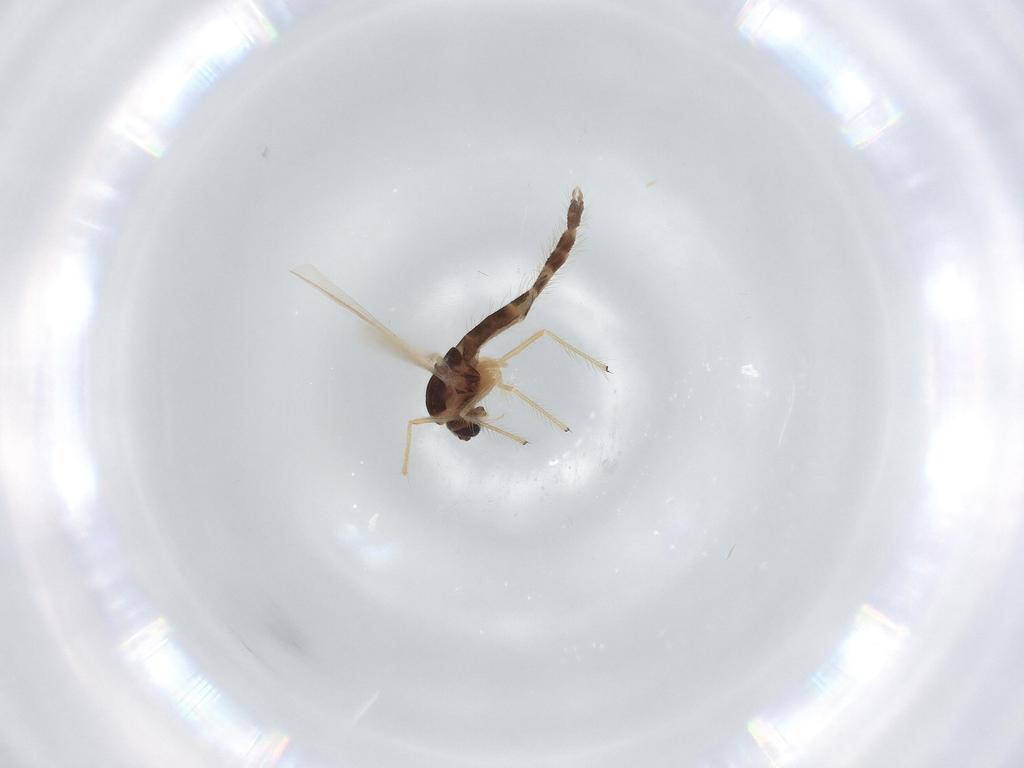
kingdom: Animalia
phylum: Arthropoda
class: Insecta
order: Diptera
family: Chironomidae
